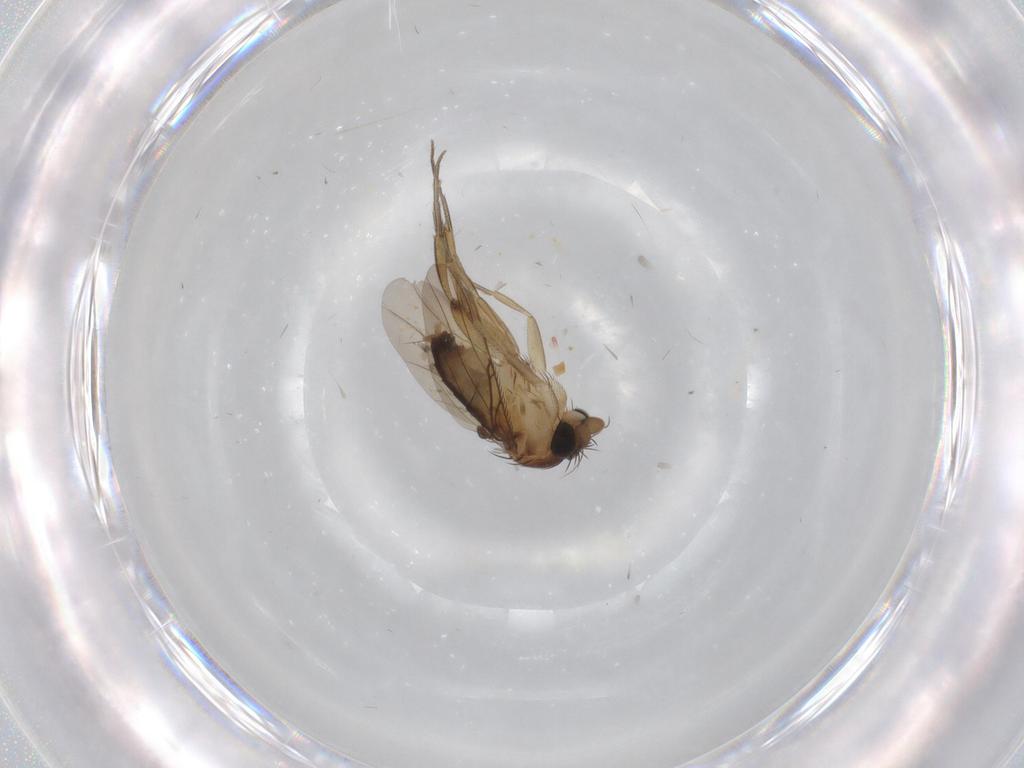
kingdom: Animalia
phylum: Arthropoda
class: Insecta
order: Diptera
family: Phoridae
